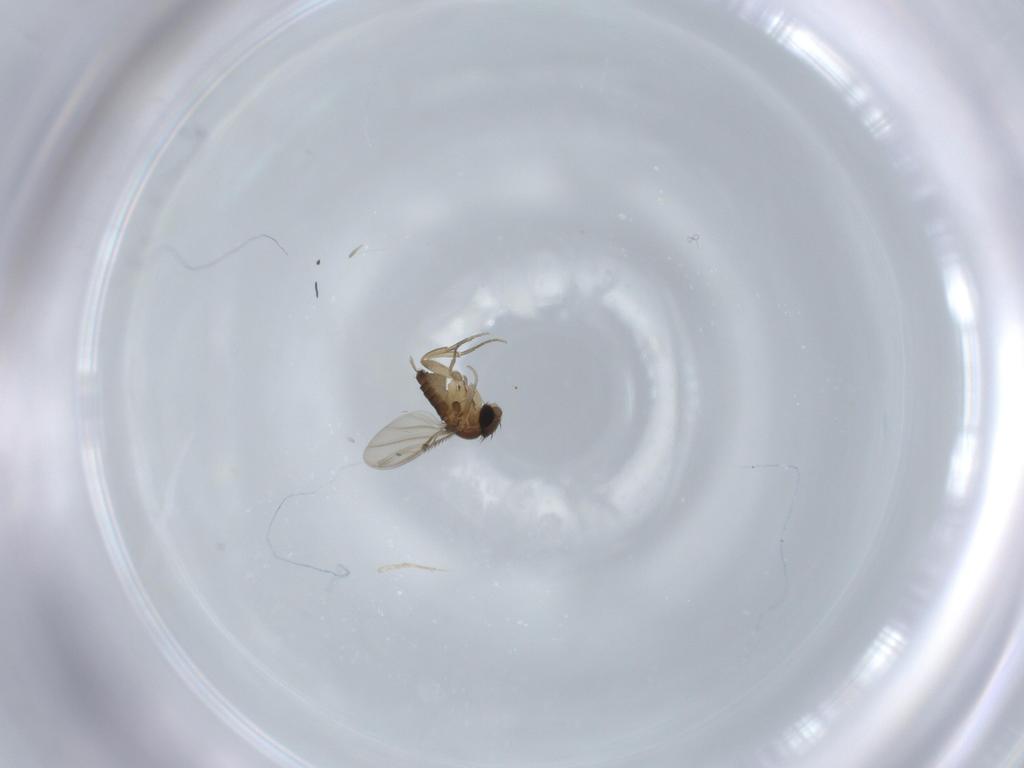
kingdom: Animalia
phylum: Arthropoda
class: Insecta
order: Diptera
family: Phoridae
